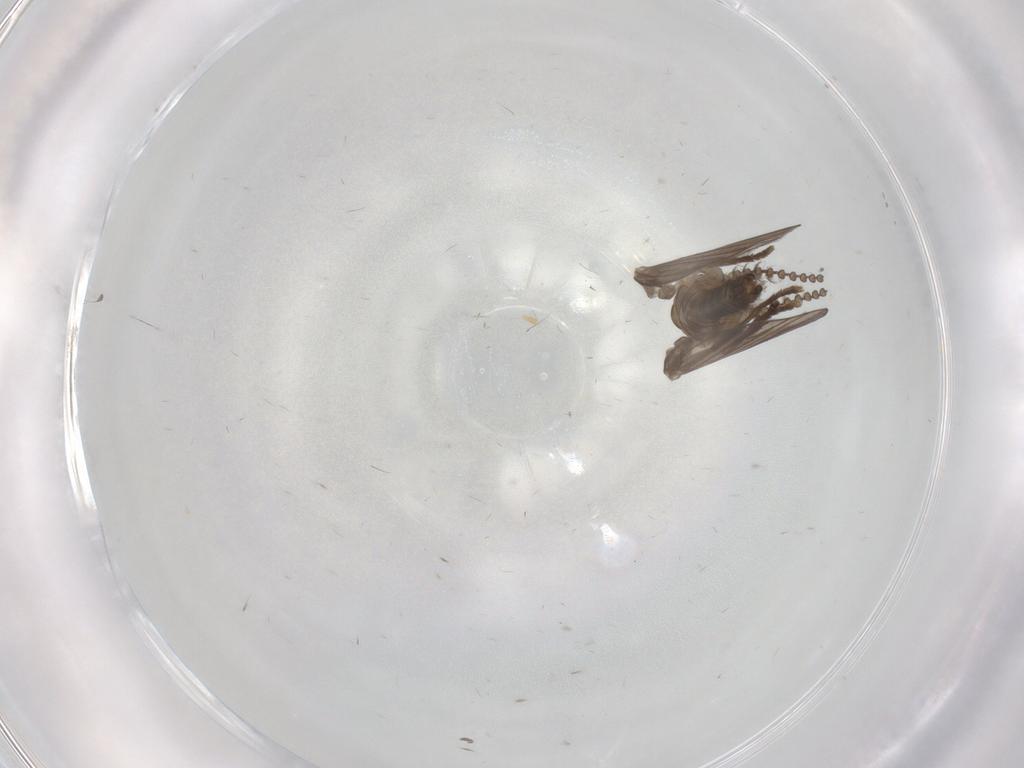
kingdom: Animalia
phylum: Arthropoda
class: Insecta
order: Diptera
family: Psychodidae
